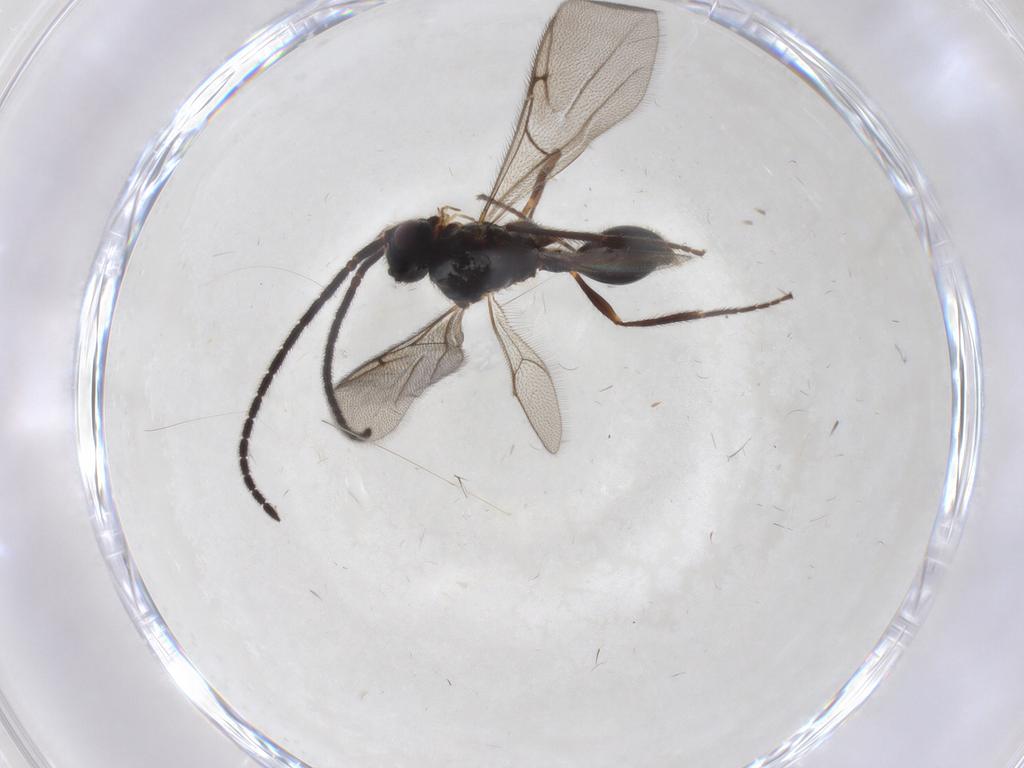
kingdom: Animalia
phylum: Arthropoda
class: Insecta
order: Hymenoptera
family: Diapriidae
